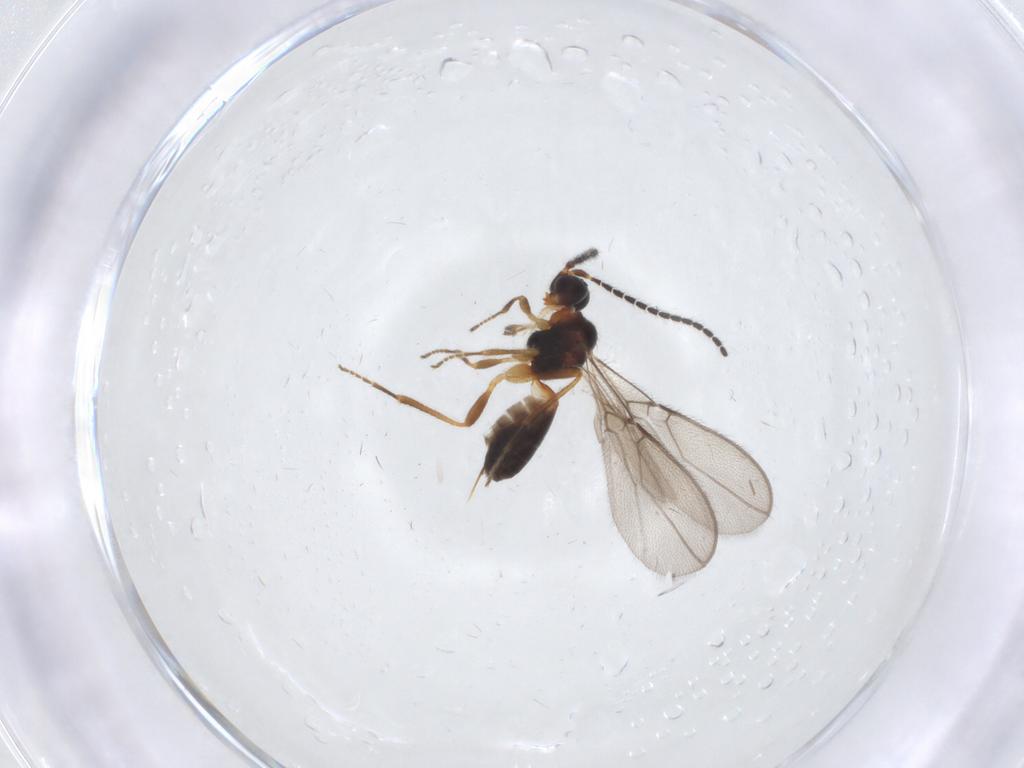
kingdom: Animalia
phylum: Arthropoda
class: Insecta
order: Hymenoptera
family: Braconidae
